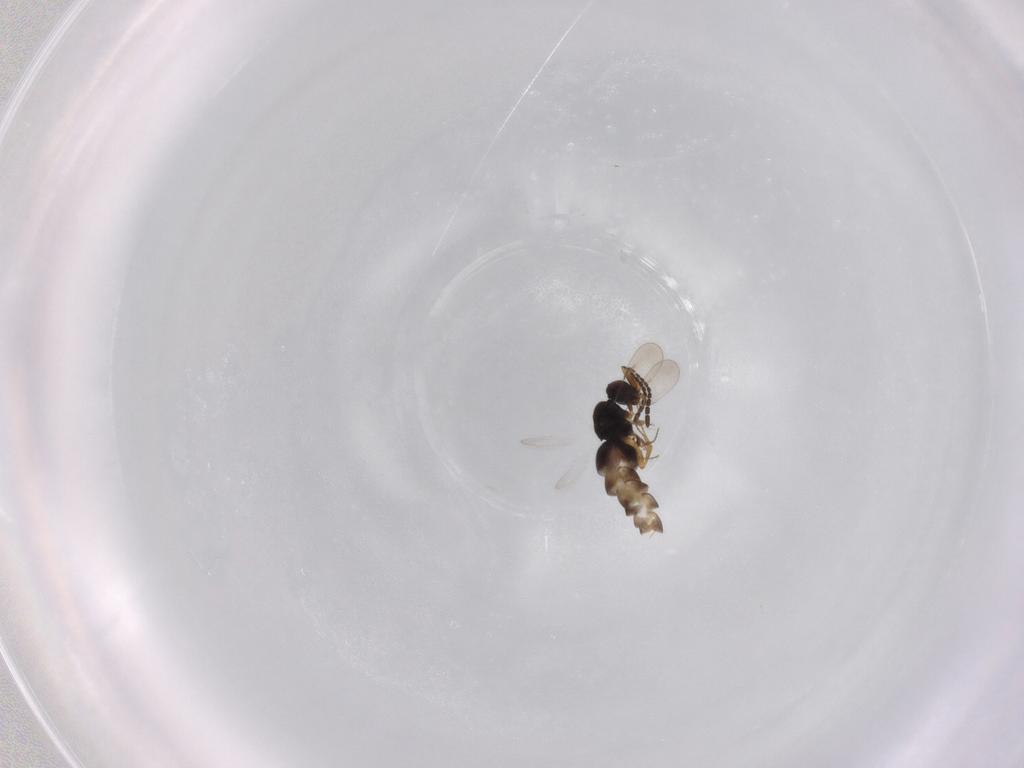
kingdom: Animalia
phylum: Arthropoda
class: Insecta
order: Hymenoptera
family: Ceraphronidae
